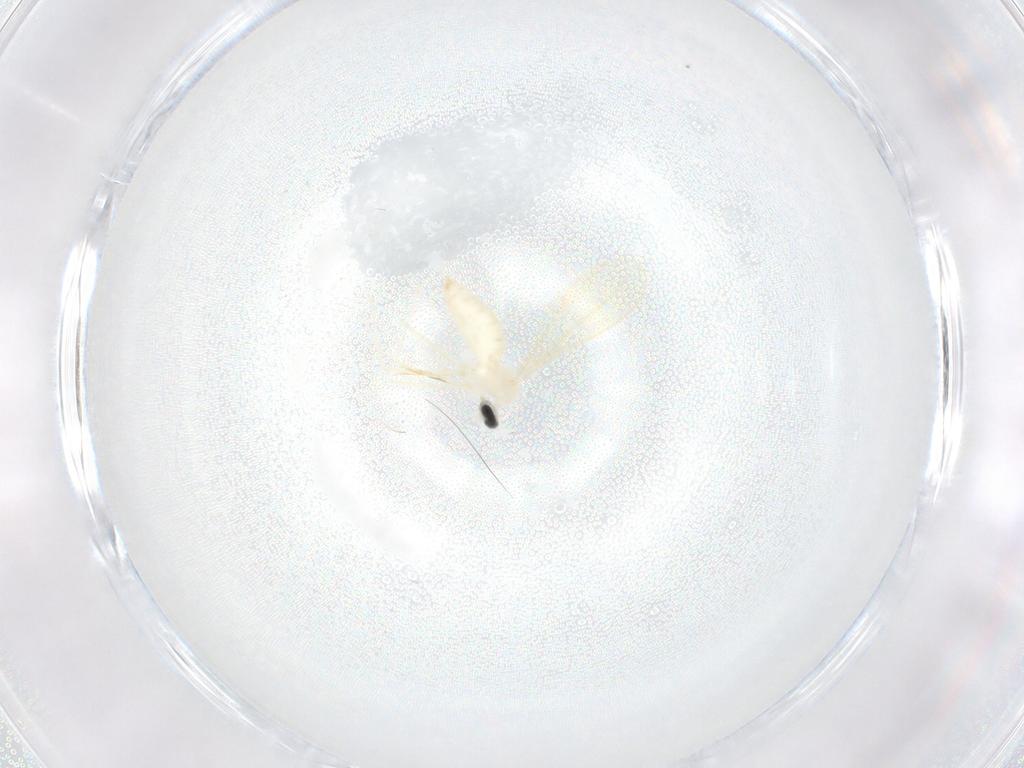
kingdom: Animalia
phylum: Arthropoda
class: Insecta
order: Diptera
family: Cecidomyiidae
